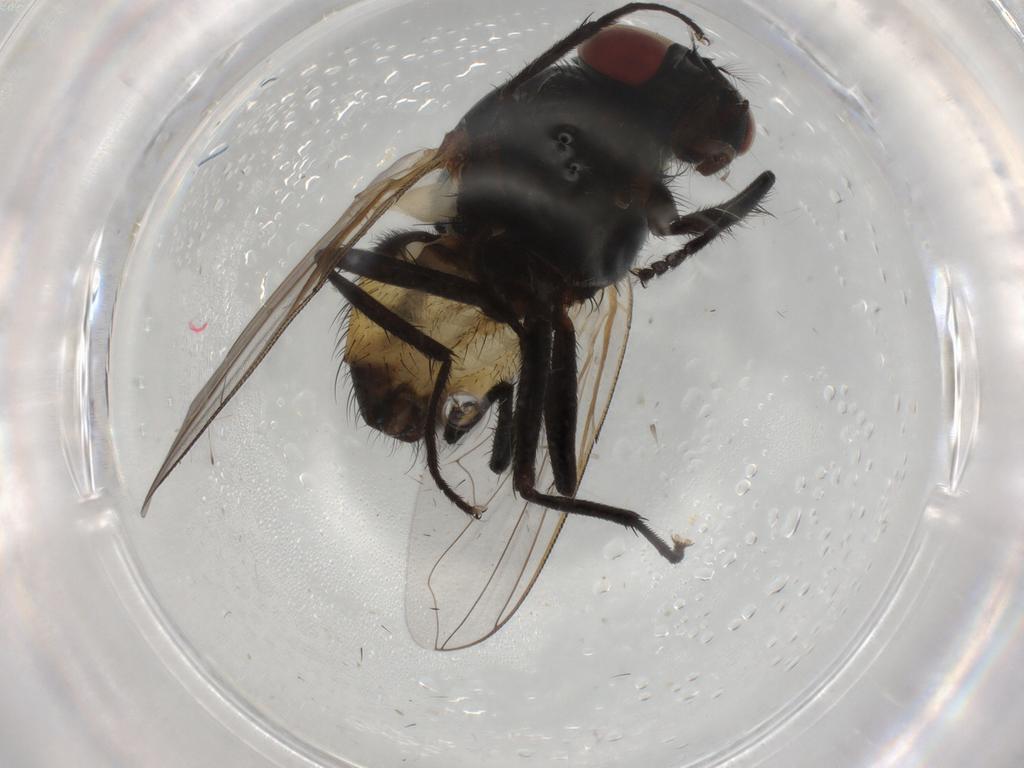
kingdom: Animalia
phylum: Arthropoda
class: Insecta
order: Diptera
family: Muscidae
